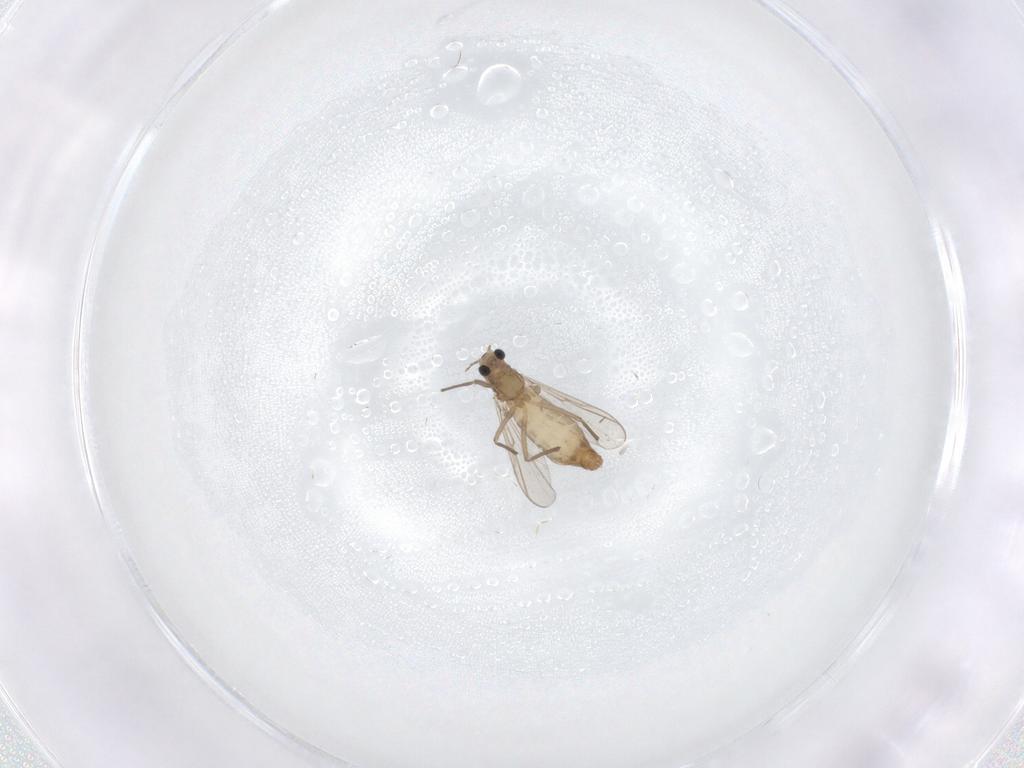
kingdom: Animalia
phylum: Arthropoda
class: Insecta
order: Diptera
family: Chironomidae
